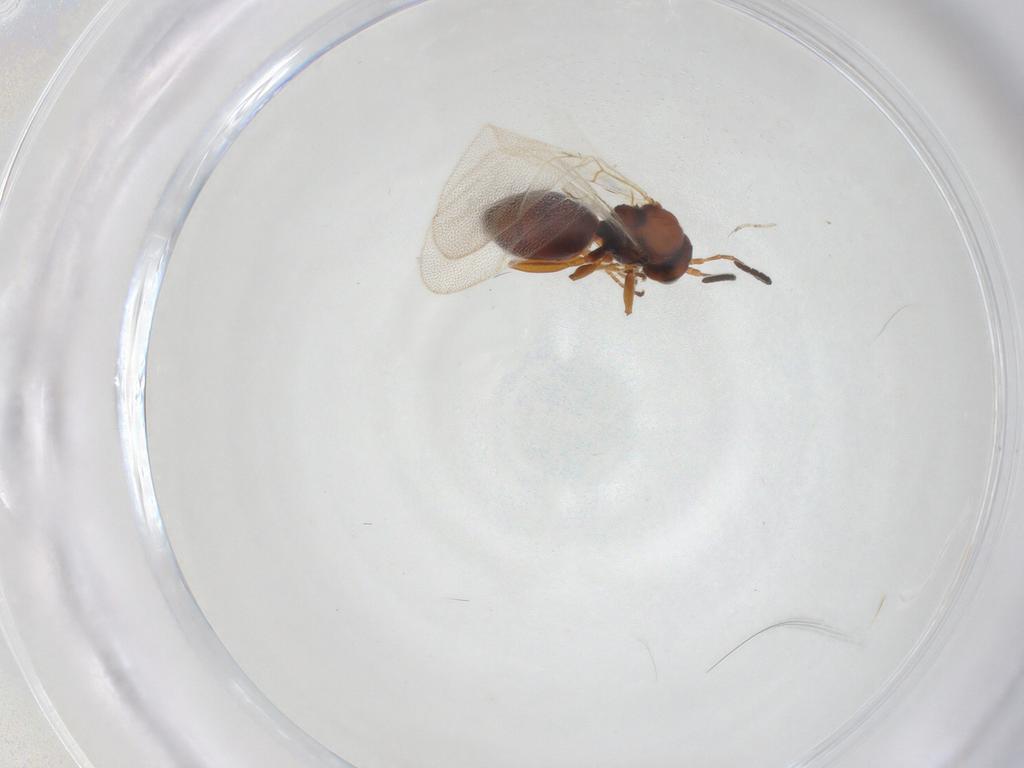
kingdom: Animalia
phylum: Arthropoda
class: Insecta
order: Hymenoptera
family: Cynipidae
